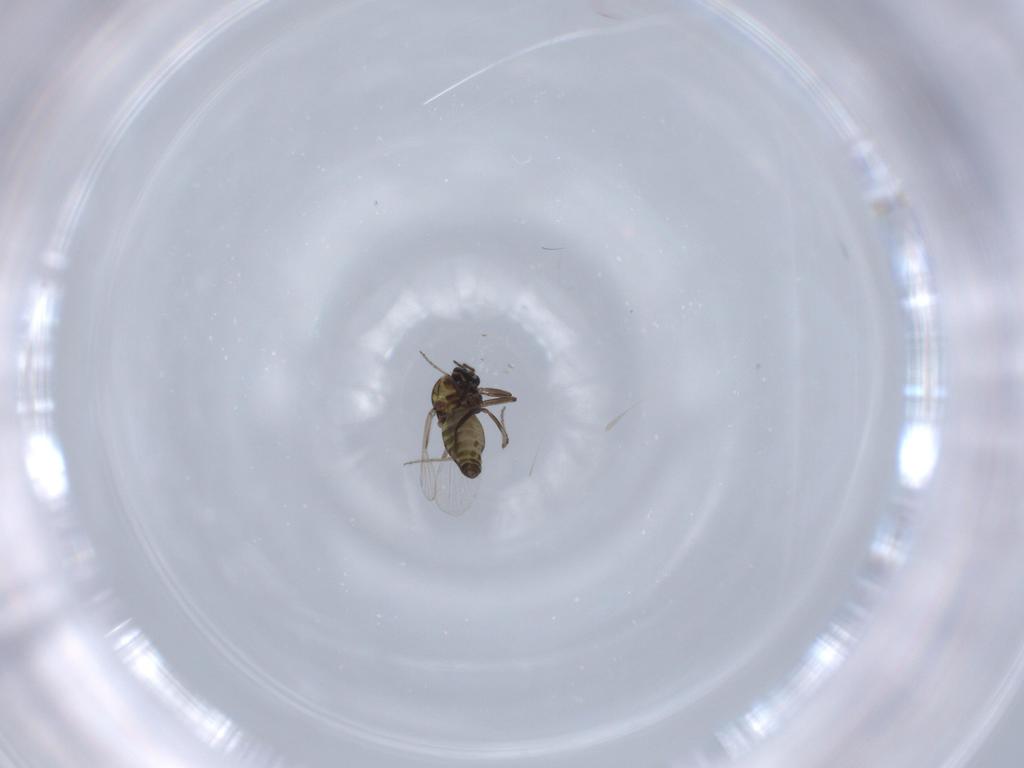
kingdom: Animalia
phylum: Arthropoda
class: Insecta
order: Diptera
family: Ceratopogonidae
